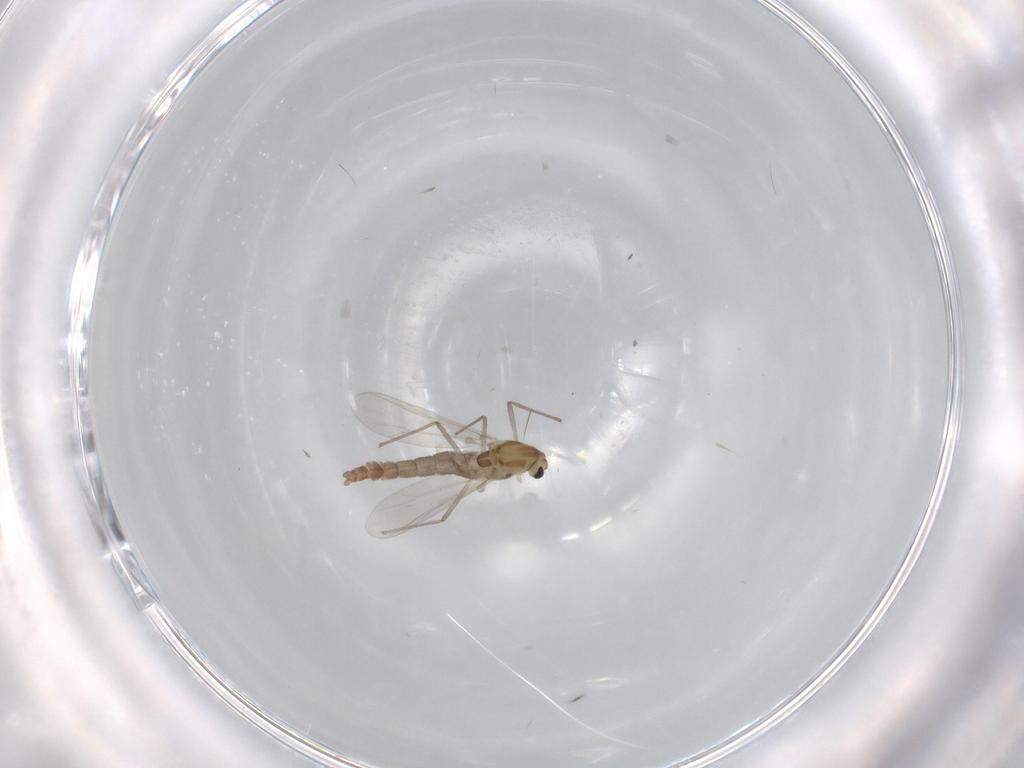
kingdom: Animalia
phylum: Arthropoda
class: Insecta
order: Diptera
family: Chironomidae
